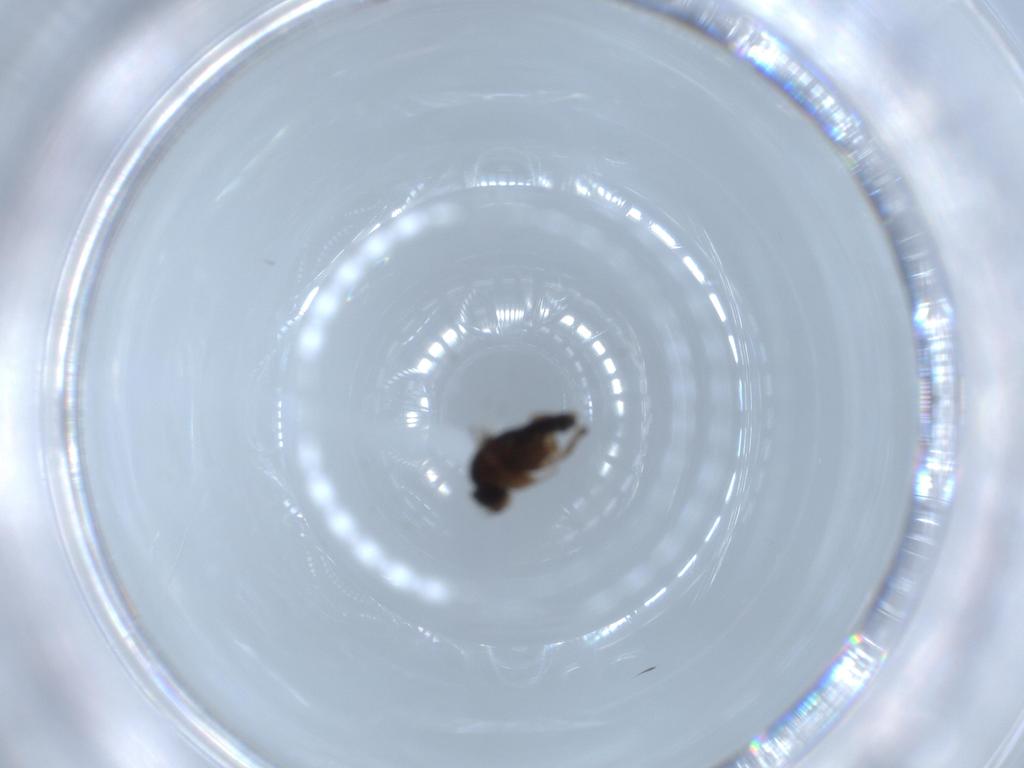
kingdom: Animalia
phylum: Arthropoda
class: Insecta
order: Diptera
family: Phoridae
